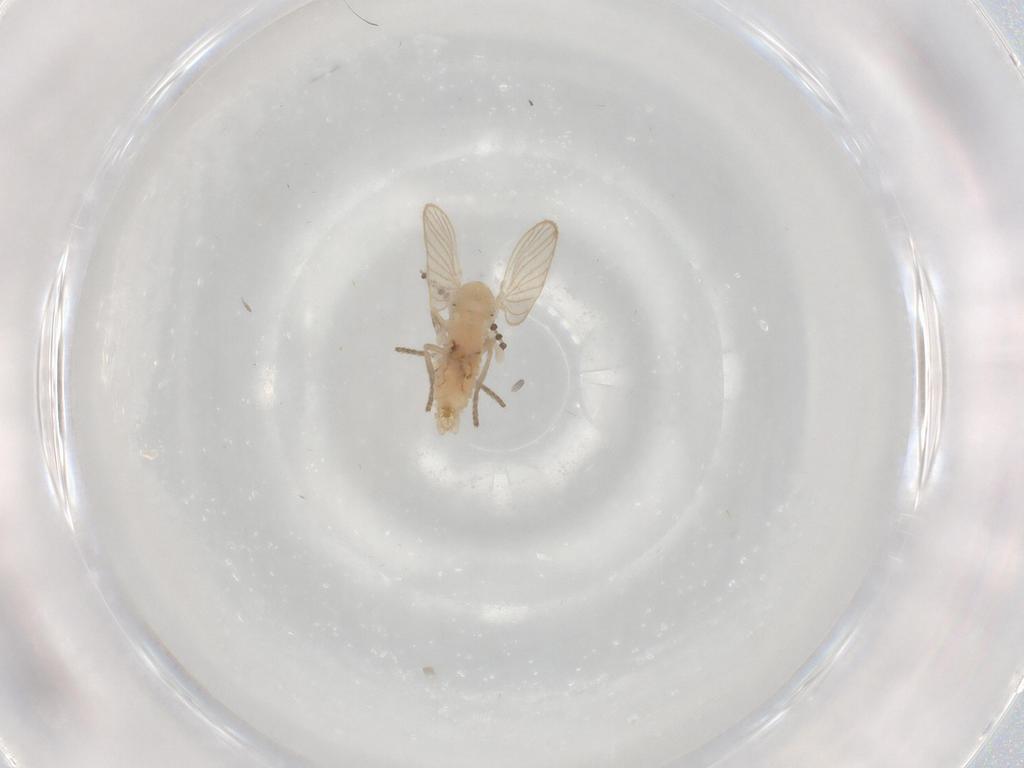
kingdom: Animalia
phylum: Arthropoda
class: Insecta
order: Diptera
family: Psychodidae
